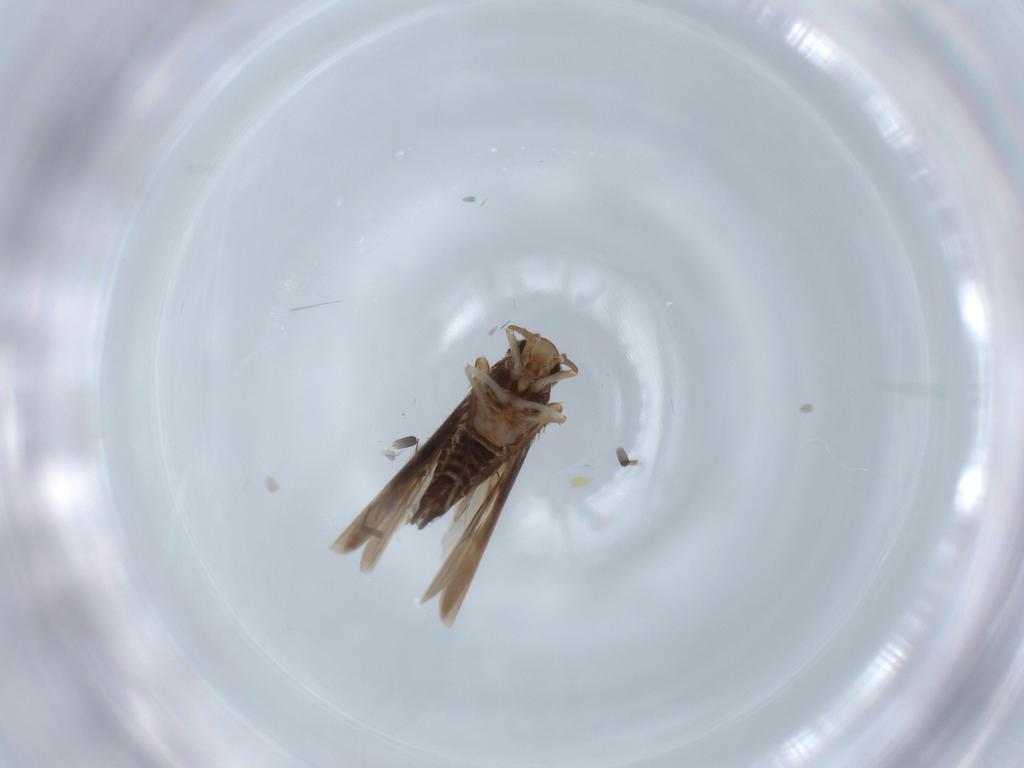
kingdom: Animalia
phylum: Arthropoda
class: Insecta
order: Hemiptera
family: Cicadellidae
